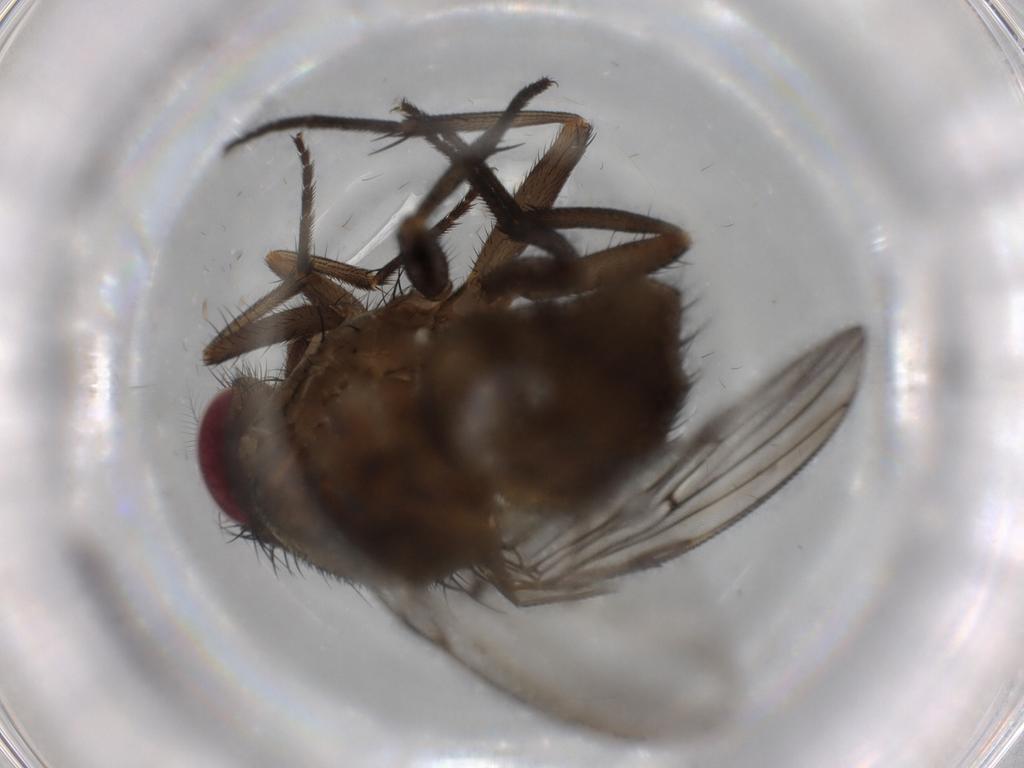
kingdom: Animalia
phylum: Arthropoda
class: Insecta
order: Diptera
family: Muscidae
